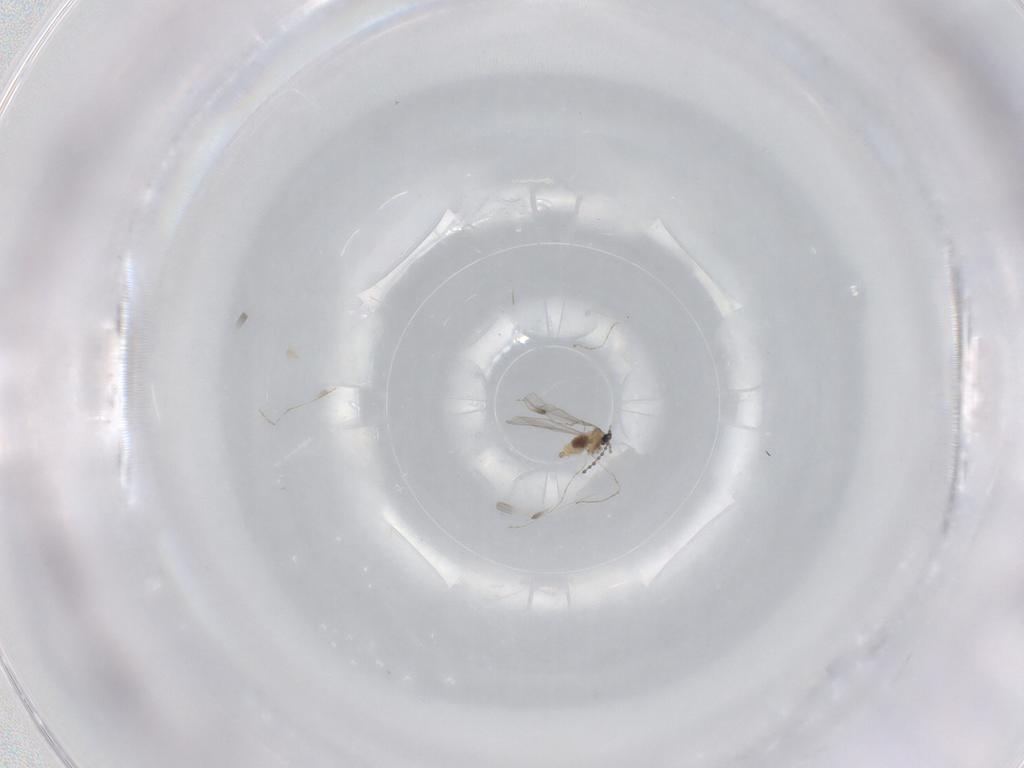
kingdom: Animalia
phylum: Arthropoda
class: Insecta
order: Diptera
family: Cecidomyiidae
